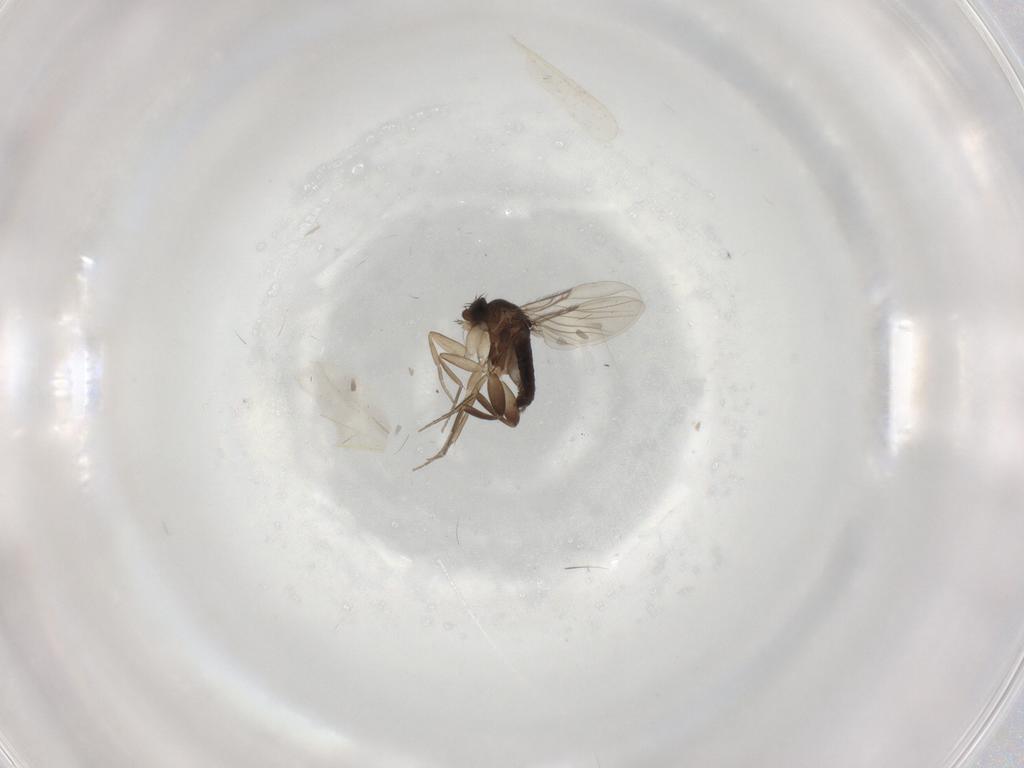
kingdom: Animalia
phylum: Arthropoda
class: Insecta
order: Diptera
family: Cecidomyiidae
